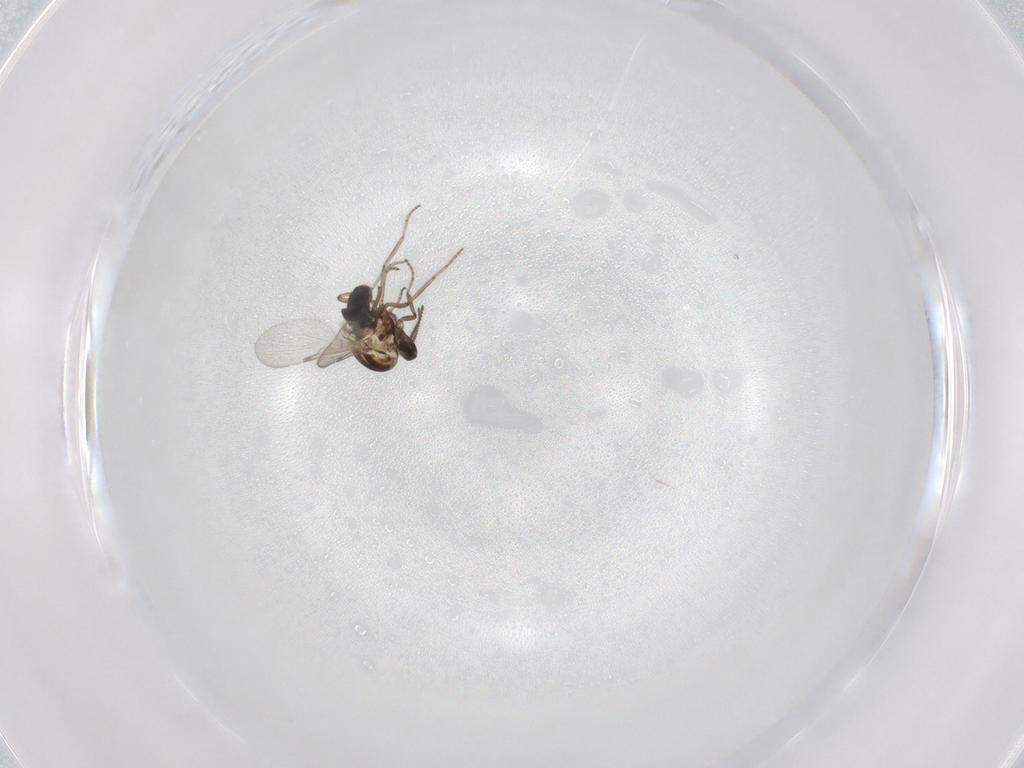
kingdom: Animalia
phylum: Arthropoda
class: Insecta
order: Diptera
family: Ceratopogonidae
